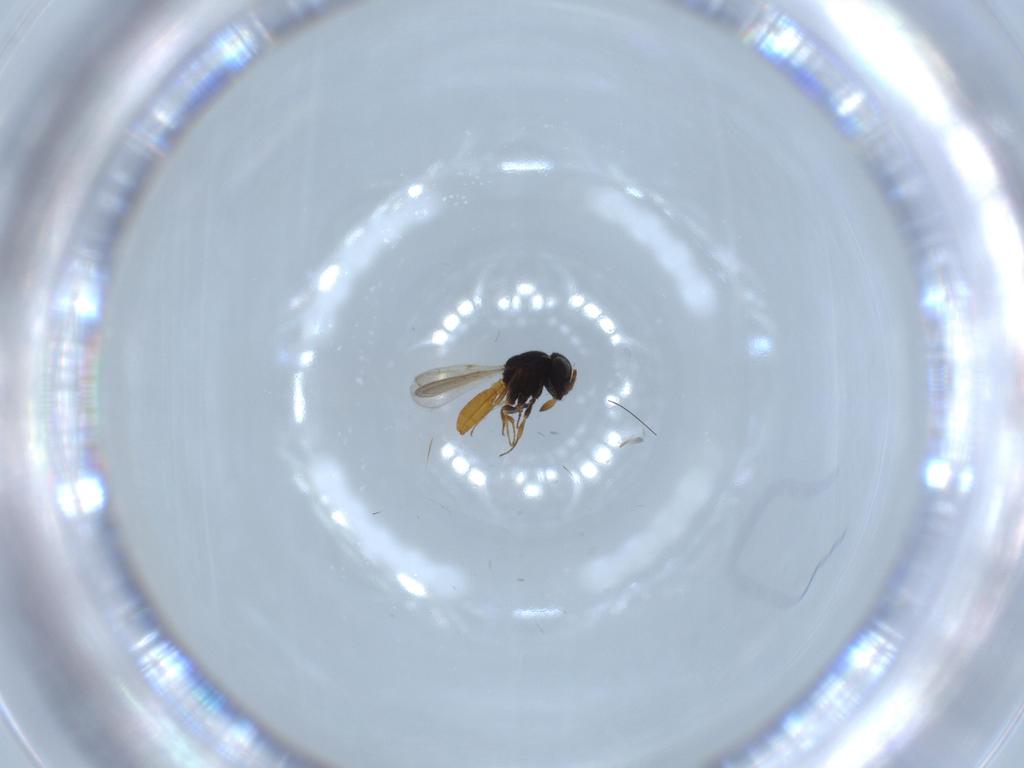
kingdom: Animalia
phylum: Arthropoda
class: Insecta
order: Hymenoptera
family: Scelionidae
